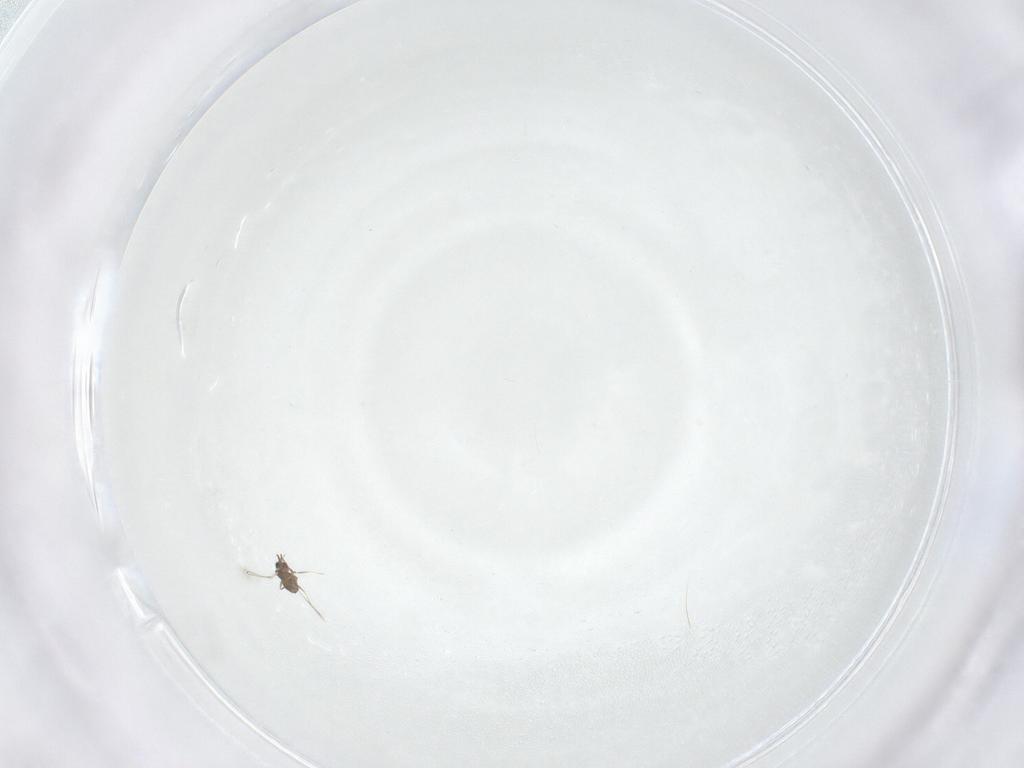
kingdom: Animalia
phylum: Arthropoda
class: Insecta
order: Hymenoptera
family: Mymaridae
